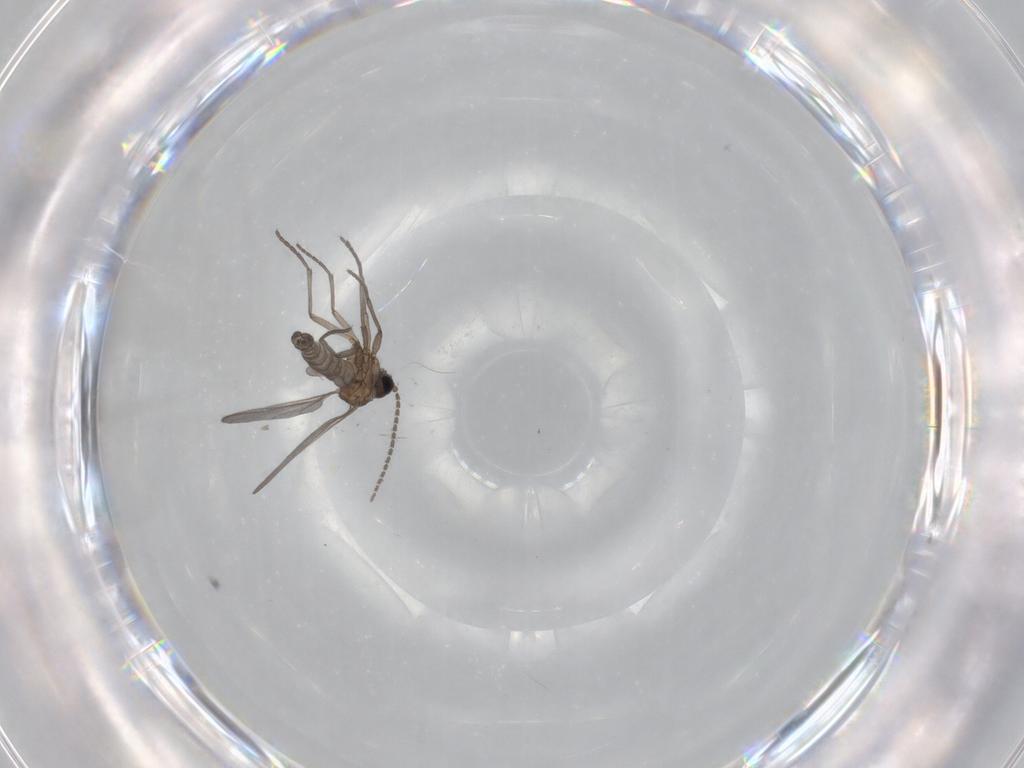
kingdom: Animalia
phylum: Arthropoda
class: Insecta
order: Diptera
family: Sciaridae
